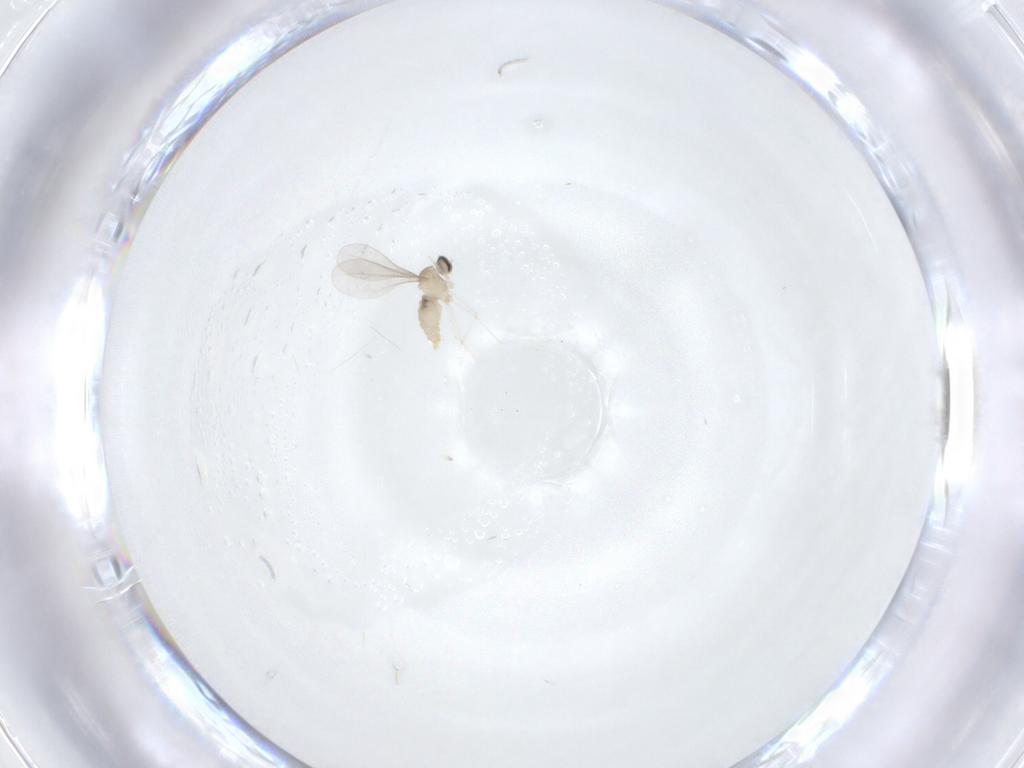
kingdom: Animalia
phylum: Arthropoda
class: Insecta
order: Diptera
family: Cecidomyiidae
